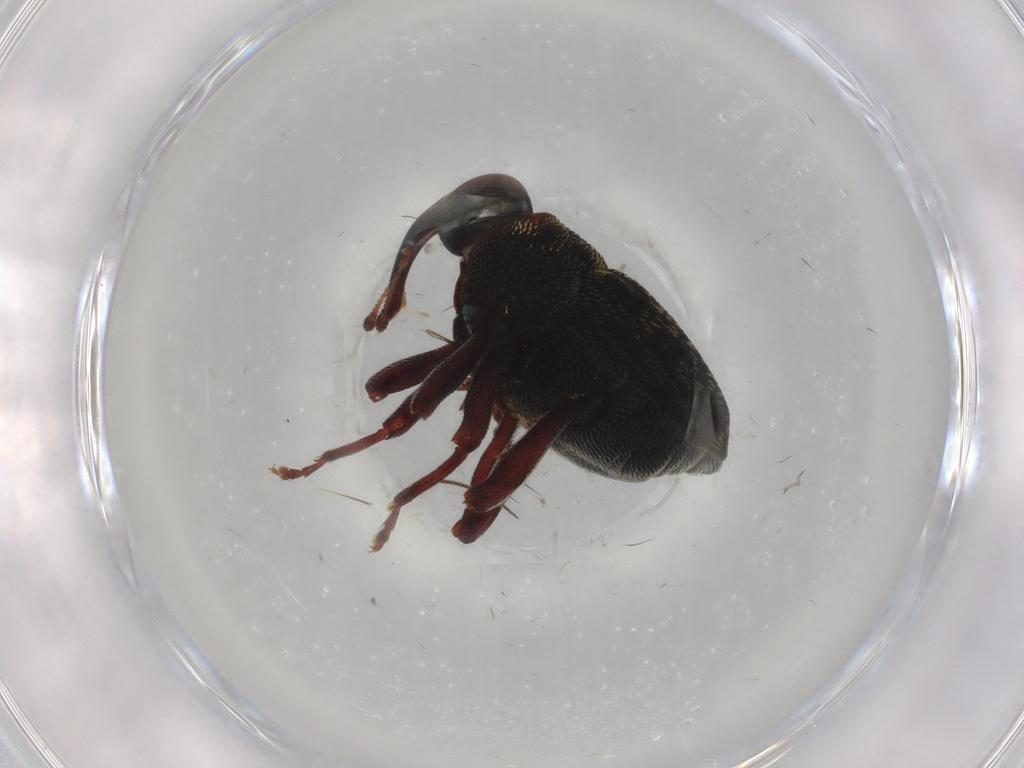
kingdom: Animalia
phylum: Arthropoda
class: Insecta
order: Coleoptera
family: Curculionidae
